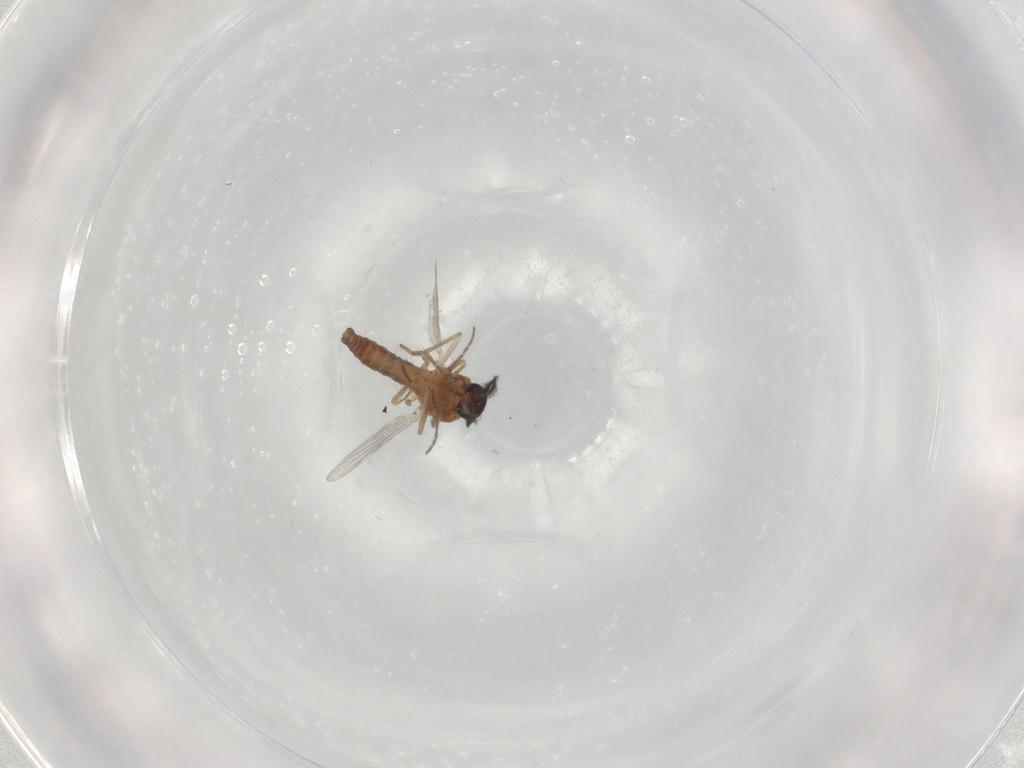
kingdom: Animalia
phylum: Arthropoda
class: Insecta
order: Diptera
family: Ceratopogonidae
